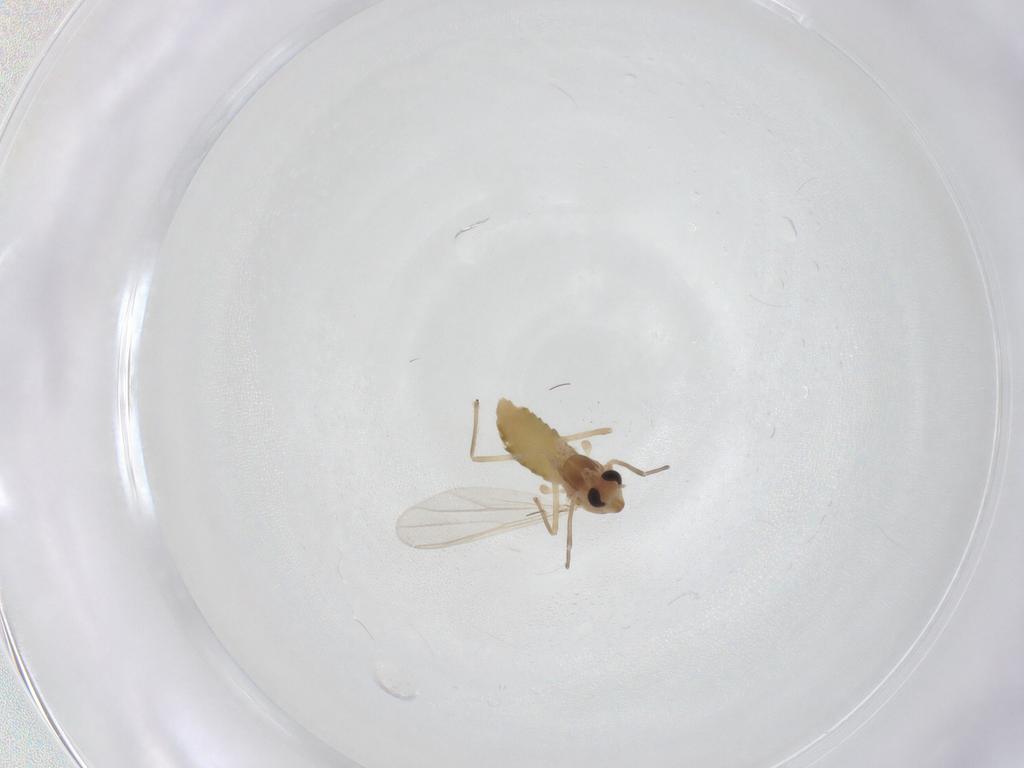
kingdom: Animalia
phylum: Arthropoda
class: Insecta
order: Diptera
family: Chironomidae
